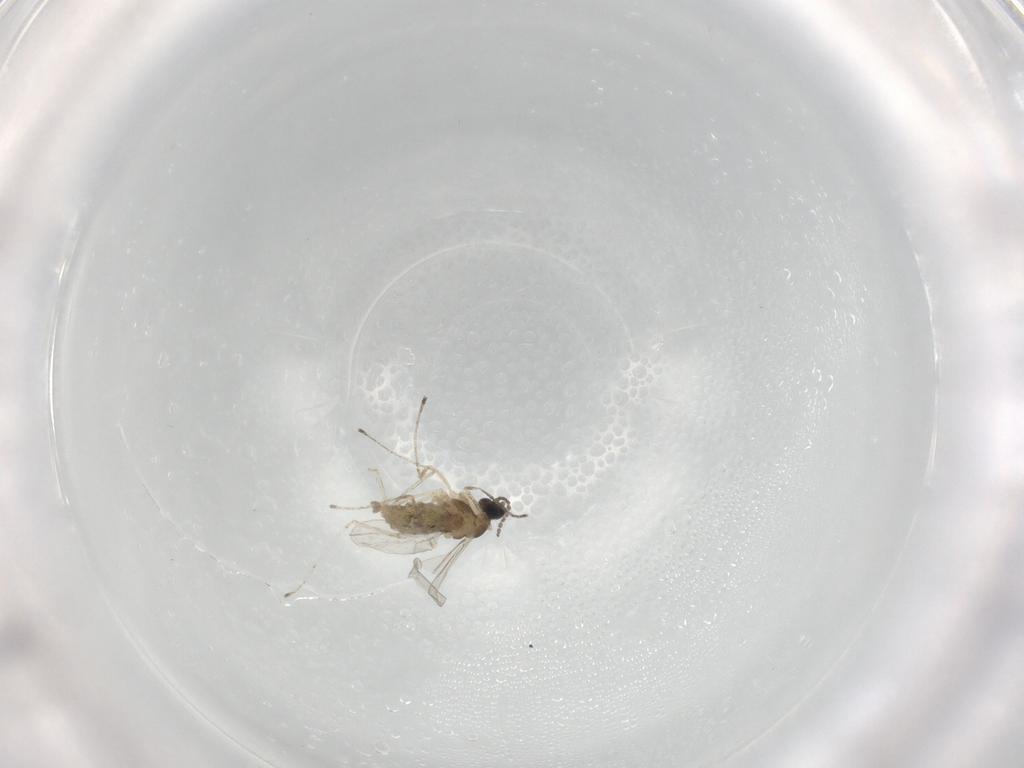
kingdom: Animalia
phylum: Arthropoda
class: Insecta
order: Diptera
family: Cecidomyiidae
